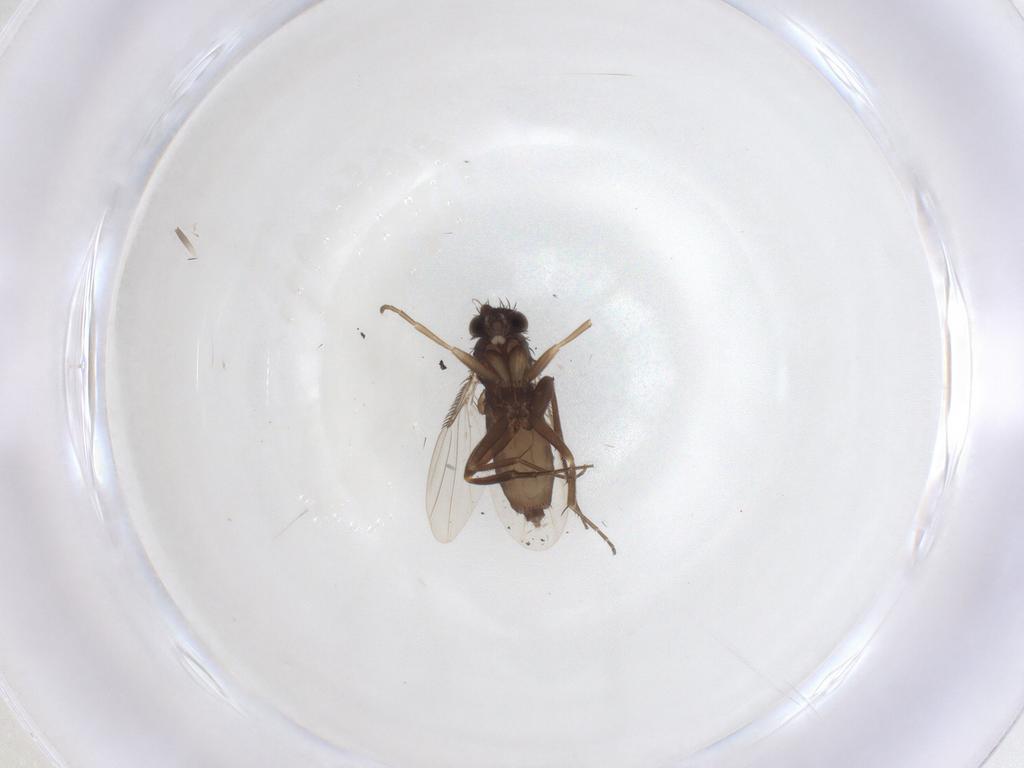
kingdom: Animalia
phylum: Arthropoda
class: Insecta
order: Diptera
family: Phoridae
